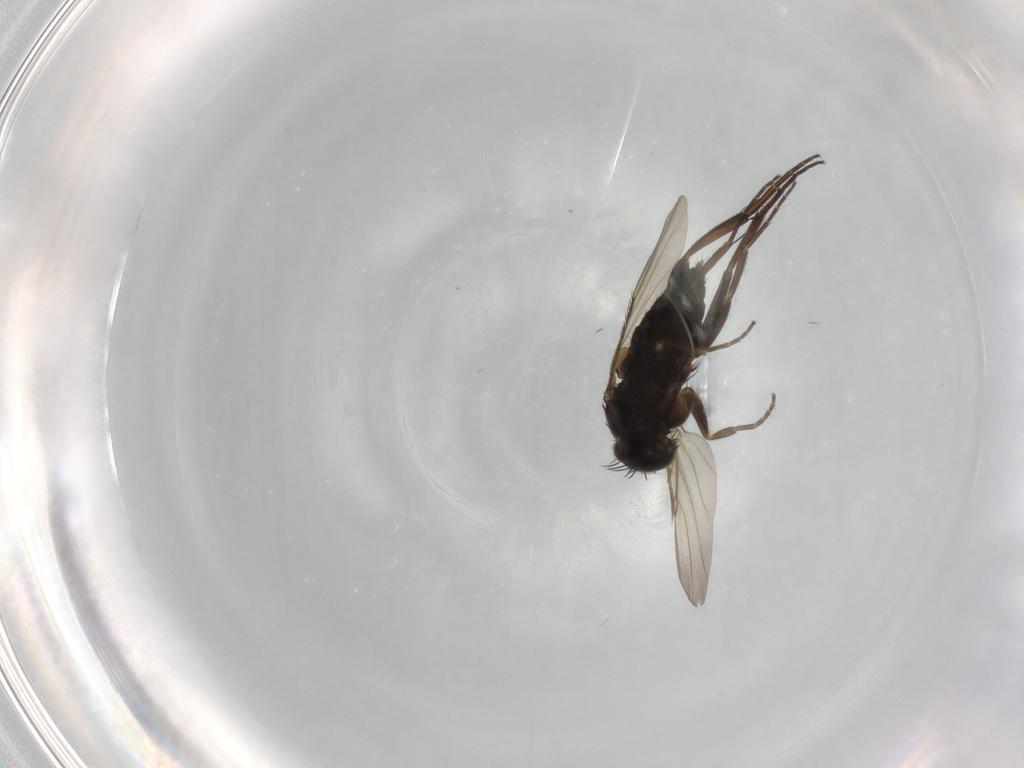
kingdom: Animalia
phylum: Arthropoda
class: Insecta
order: Diptera
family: Phoridae
